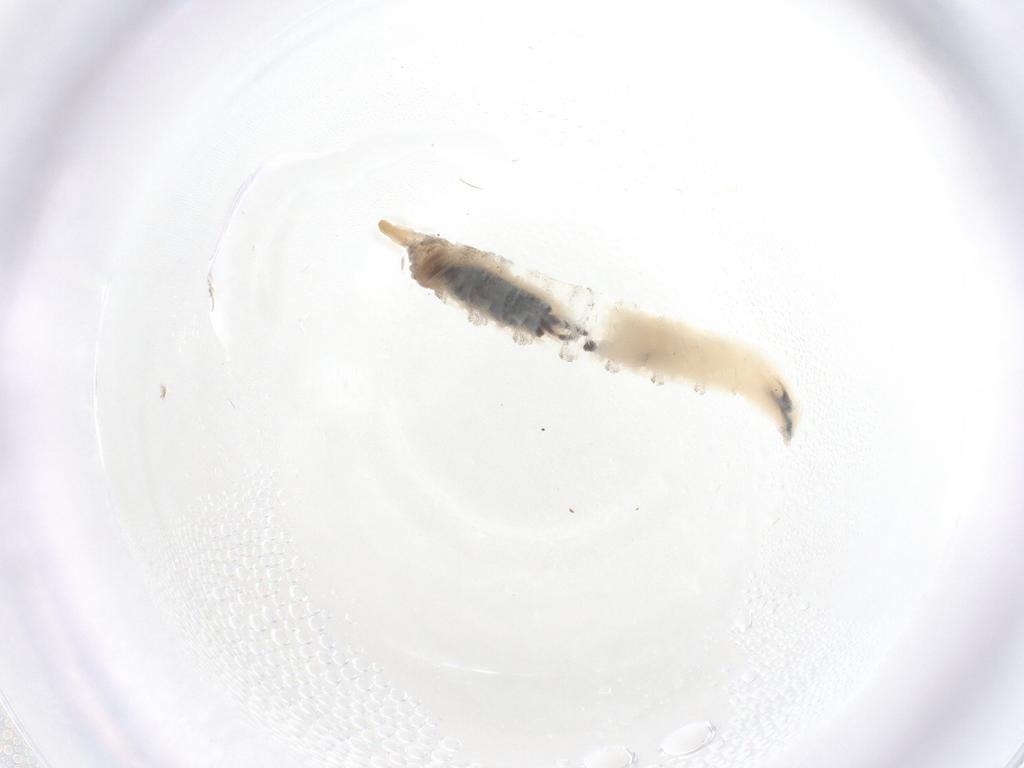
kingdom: Animalia
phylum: Arthropoda
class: Insecta
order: Diptera
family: Drosophilidae
